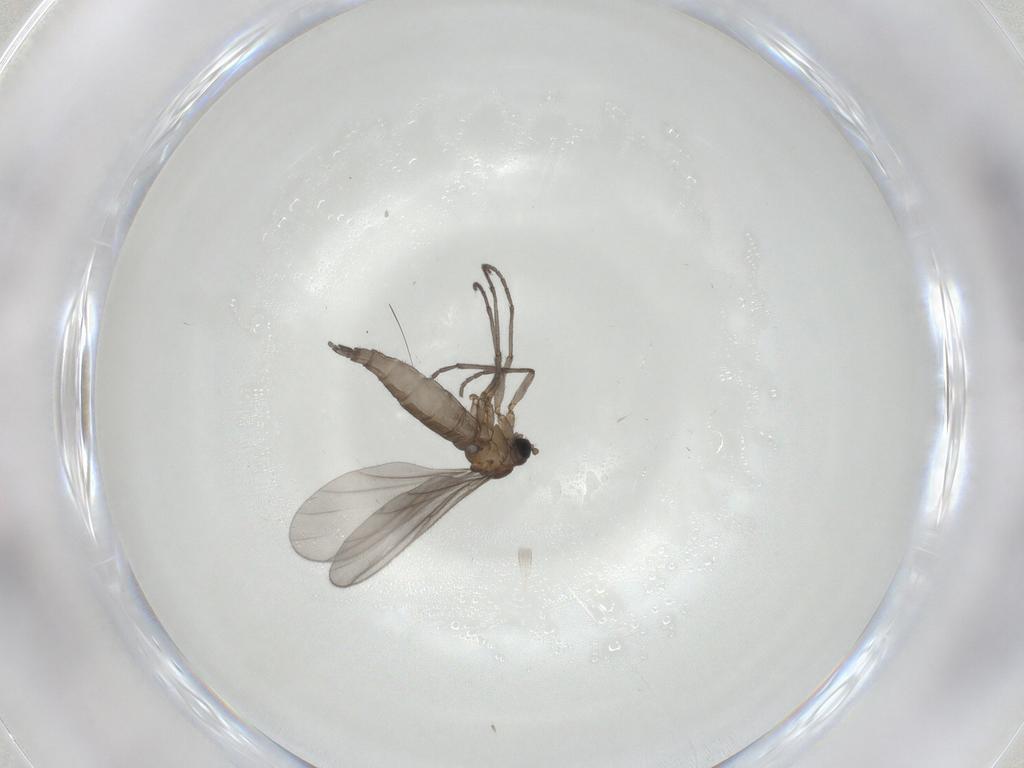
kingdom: Animalia
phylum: Arthropoda
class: Insecta
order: Diptera
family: Sciaridae
